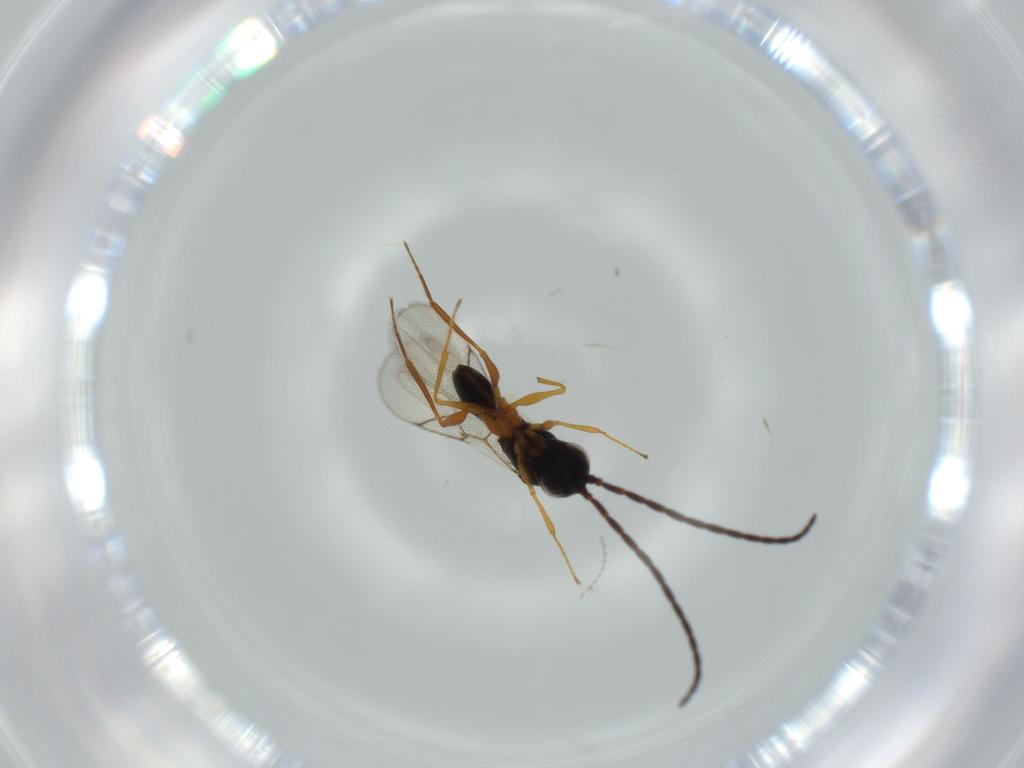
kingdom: Animalia
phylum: Arthropoda
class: Insecta
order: Hymenoptera
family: Figitidae
